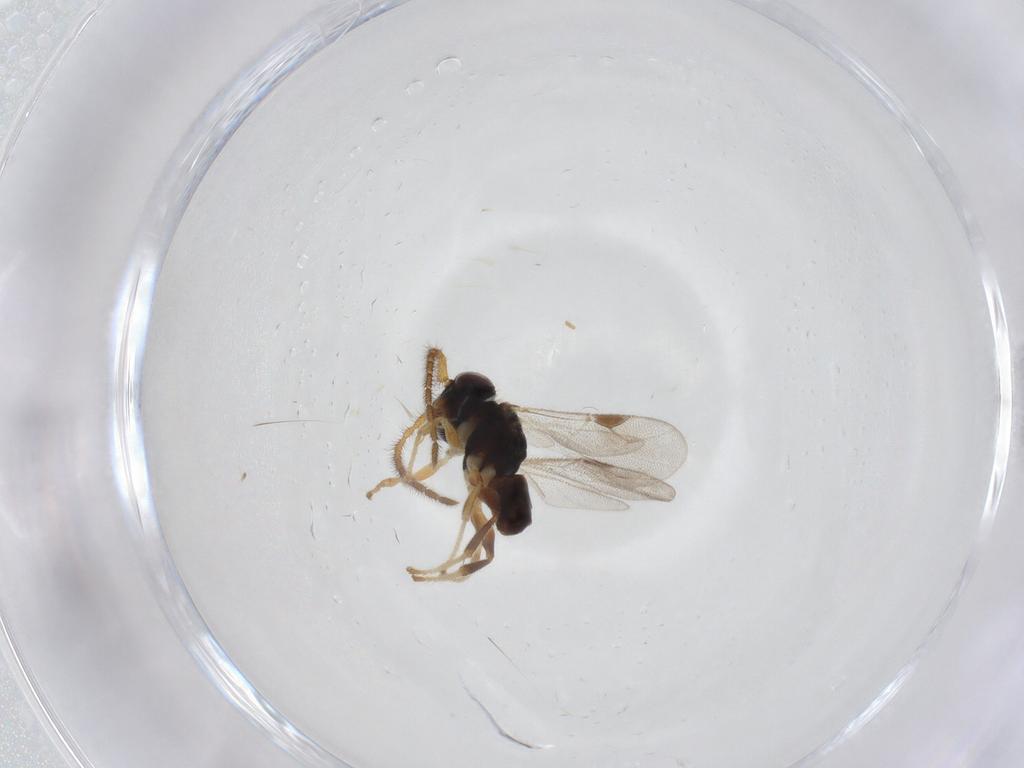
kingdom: Animalia
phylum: Arthropoda
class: Insecta
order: Hymenoptera
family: Dryinidae
